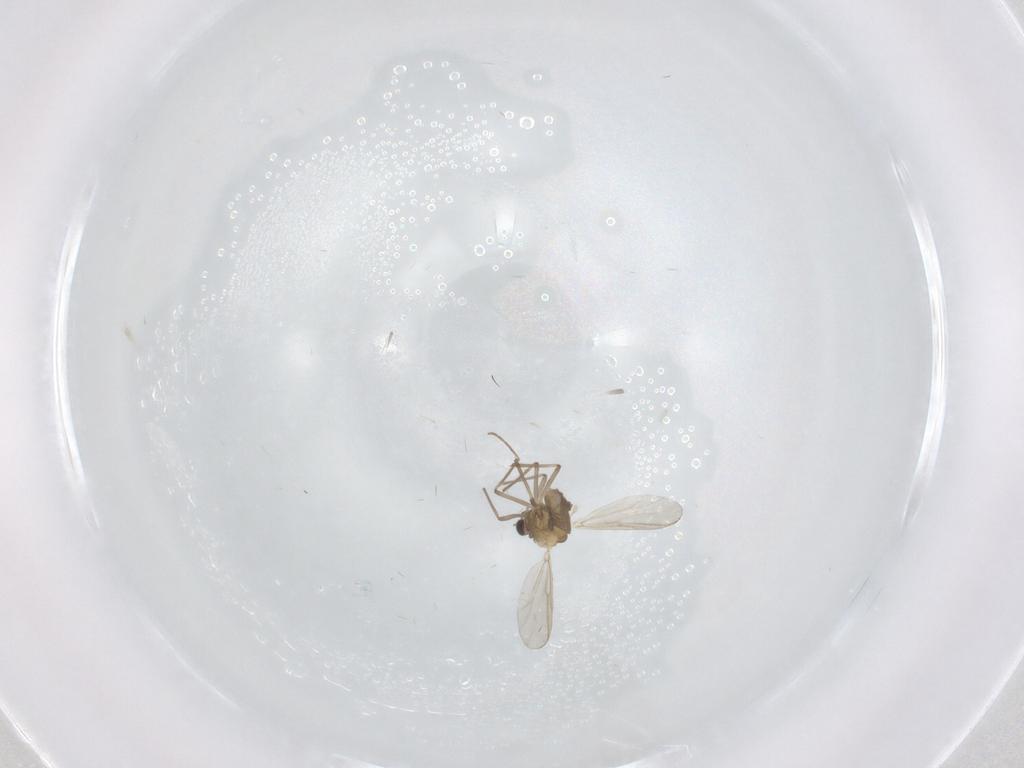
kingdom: Animalia
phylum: Arthropoda
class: Insecta
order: Diptera
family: Chironomidae
